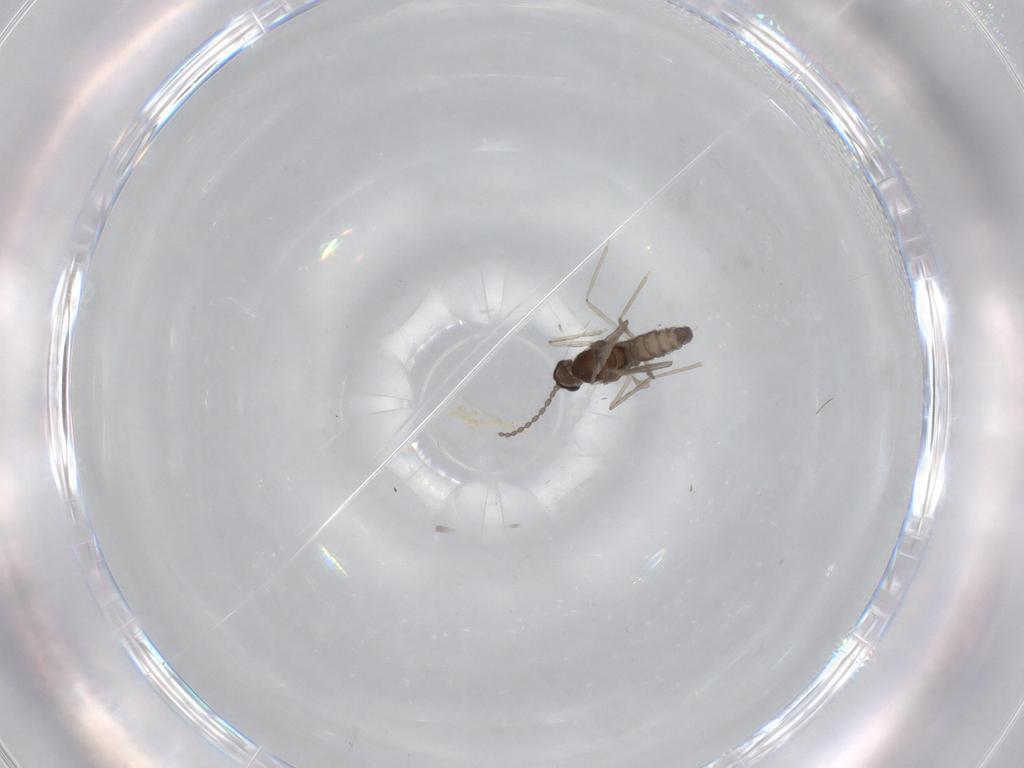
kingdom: Animalia
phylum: Arthropoda
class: Insecta
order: Diptera
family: Cecidomyiidae
